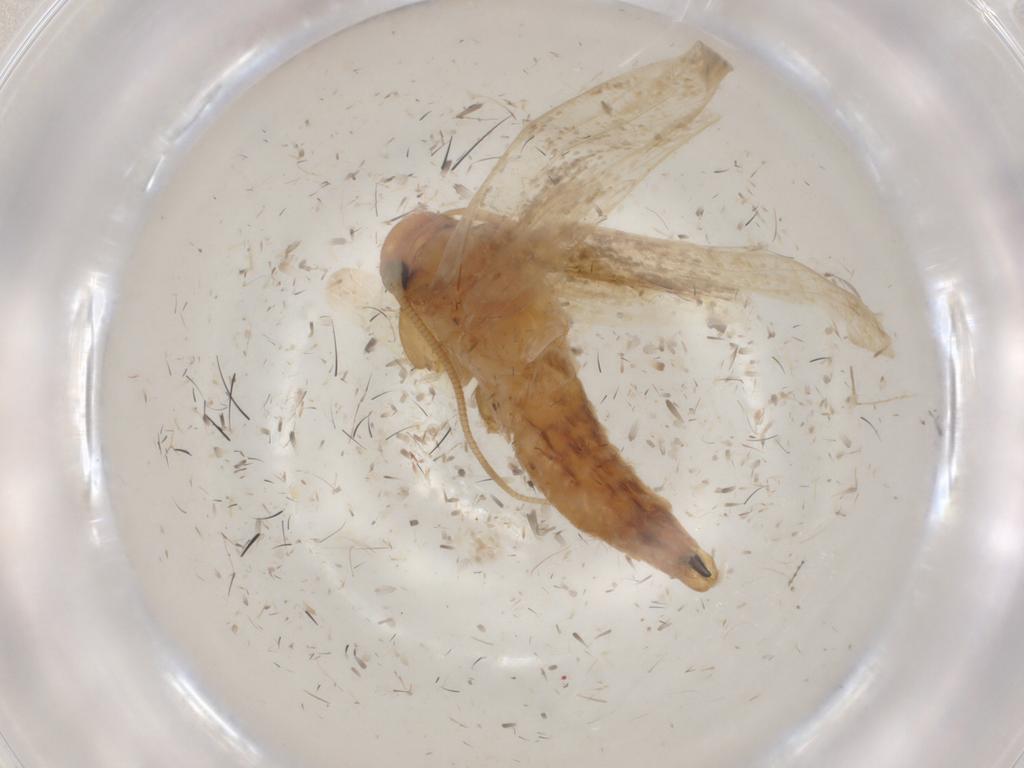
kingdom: Animalia
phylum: Arthropoda
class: Insecta
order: Lepidoptera
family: Tineidae
